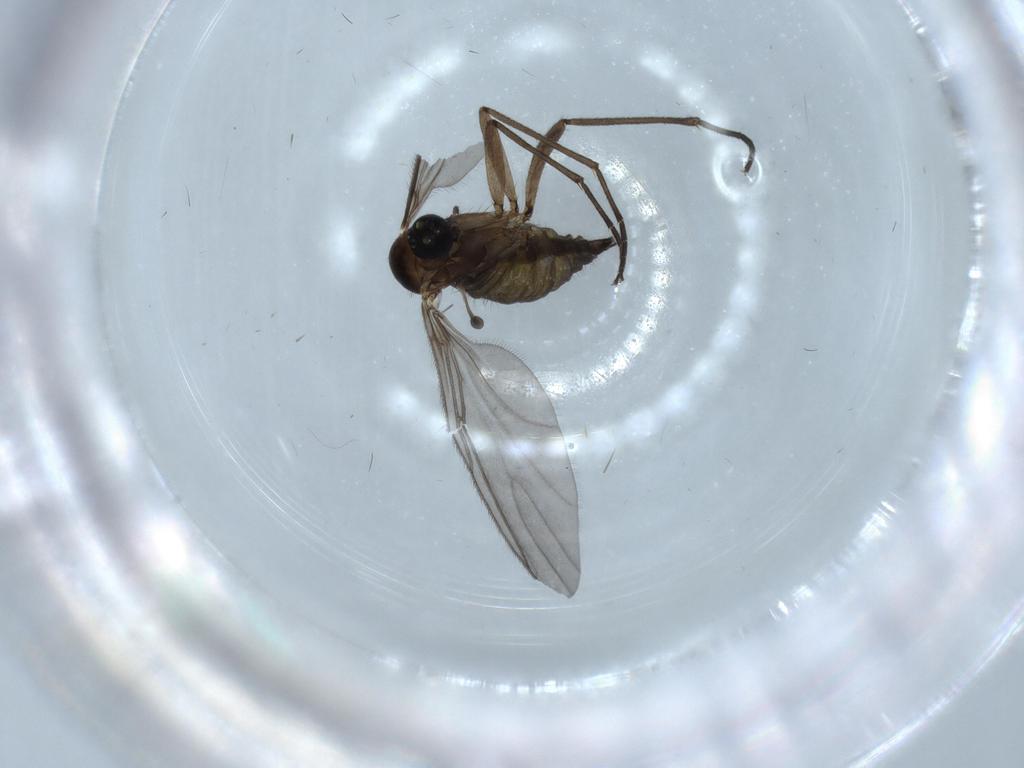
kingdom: Animalia
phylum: Arthropoda
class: Insecta
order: Diptera
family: Sciaridae
